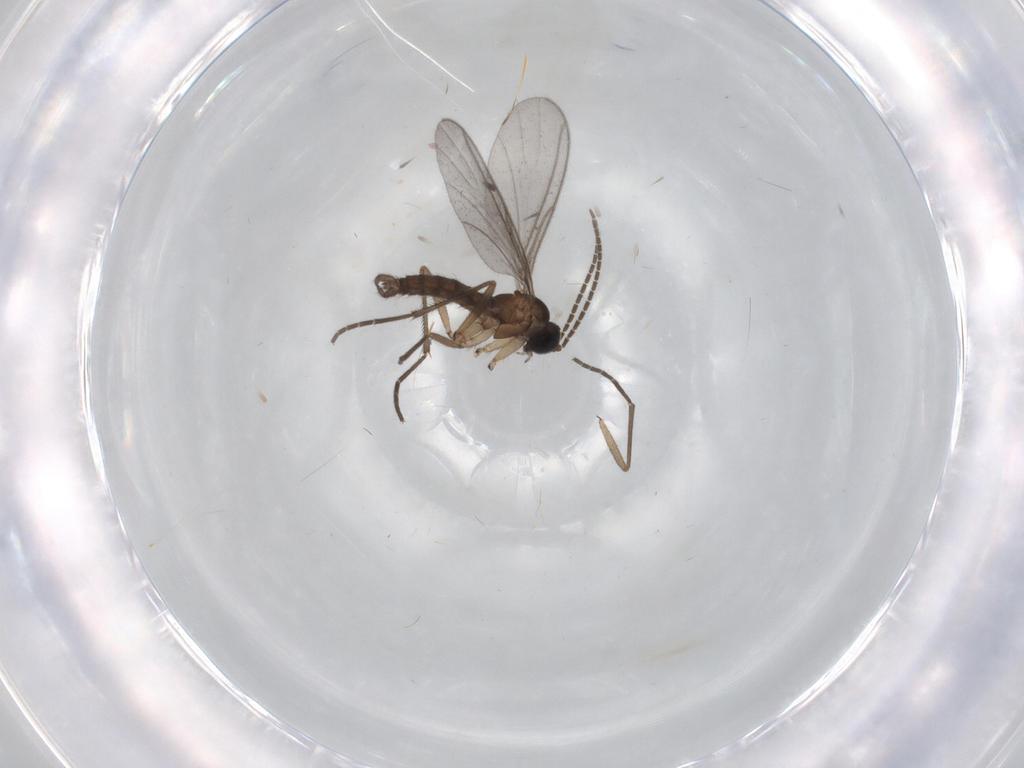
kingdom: Animalia
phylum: Arthropoda
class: Insecta
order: Diptera
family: Sciaridae
